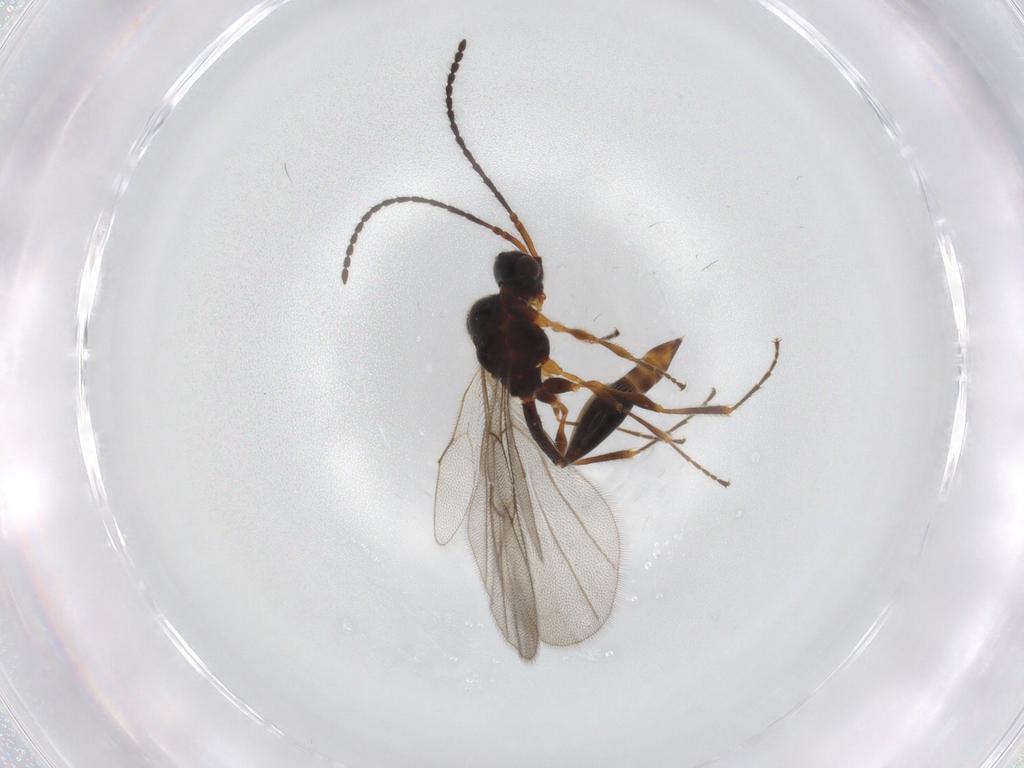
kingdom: Animalia
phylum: Arthropoda
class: Insecta
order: Hymenoptera
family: Diapriidae
